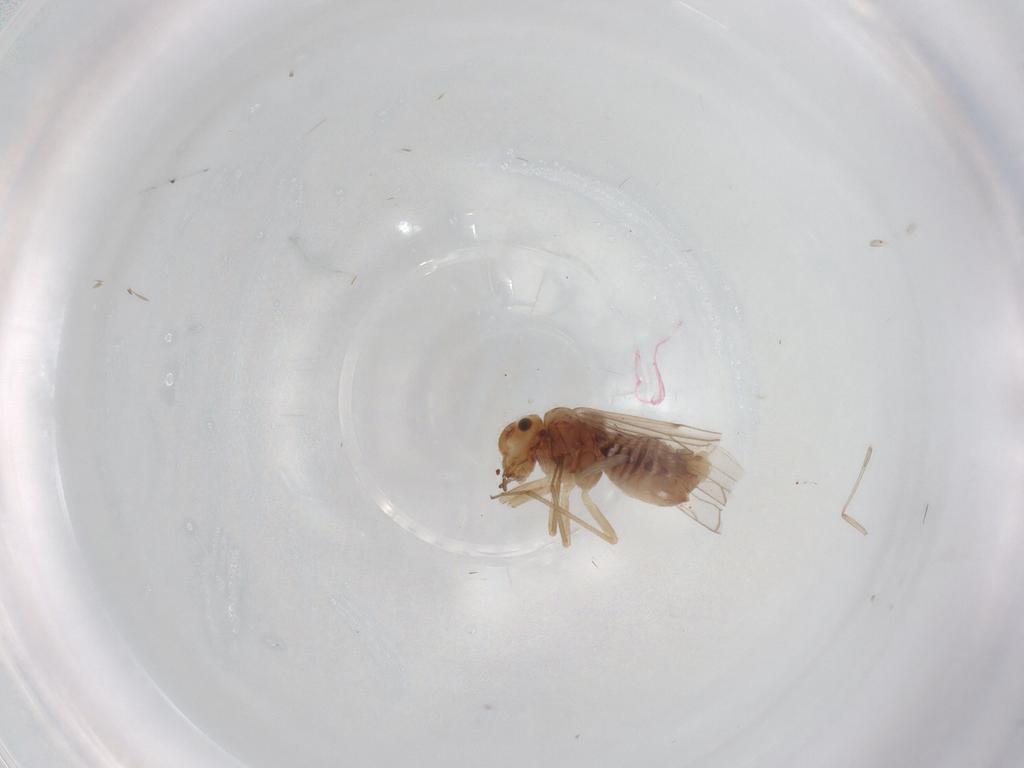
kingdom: Animalia
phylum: Arthropoda
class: Insecta
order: Psocodea
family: Lachesillidae
